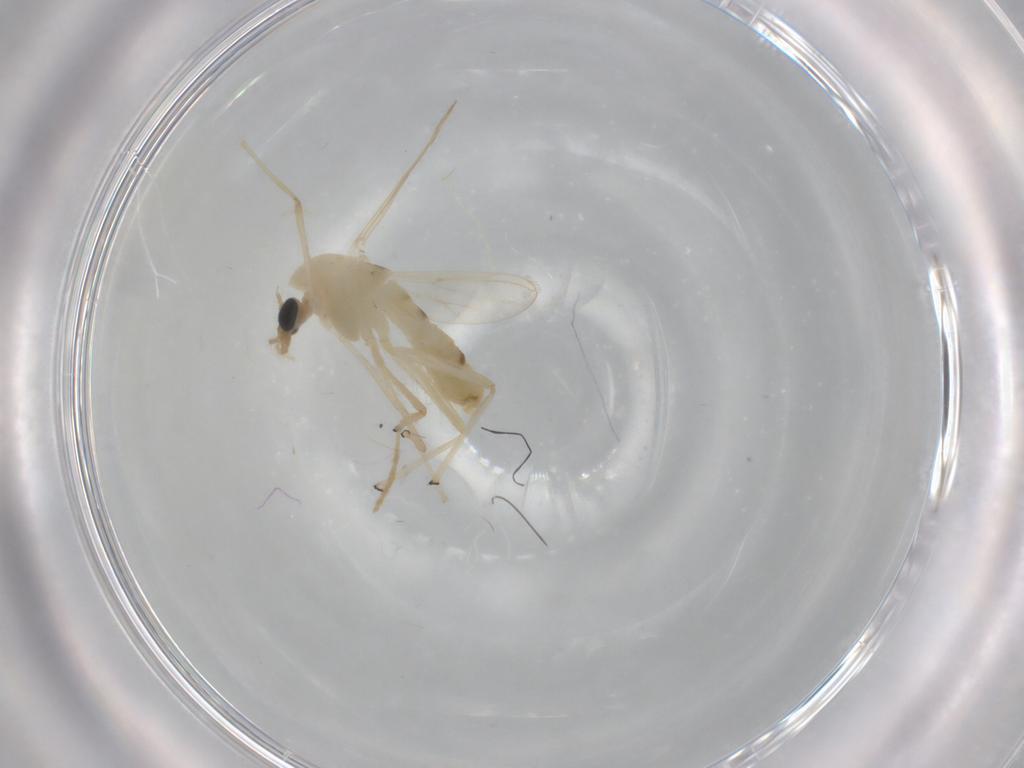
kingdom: Animalia
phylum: Arthropoda
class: Insecta
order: Diptera
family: Chironomidae
